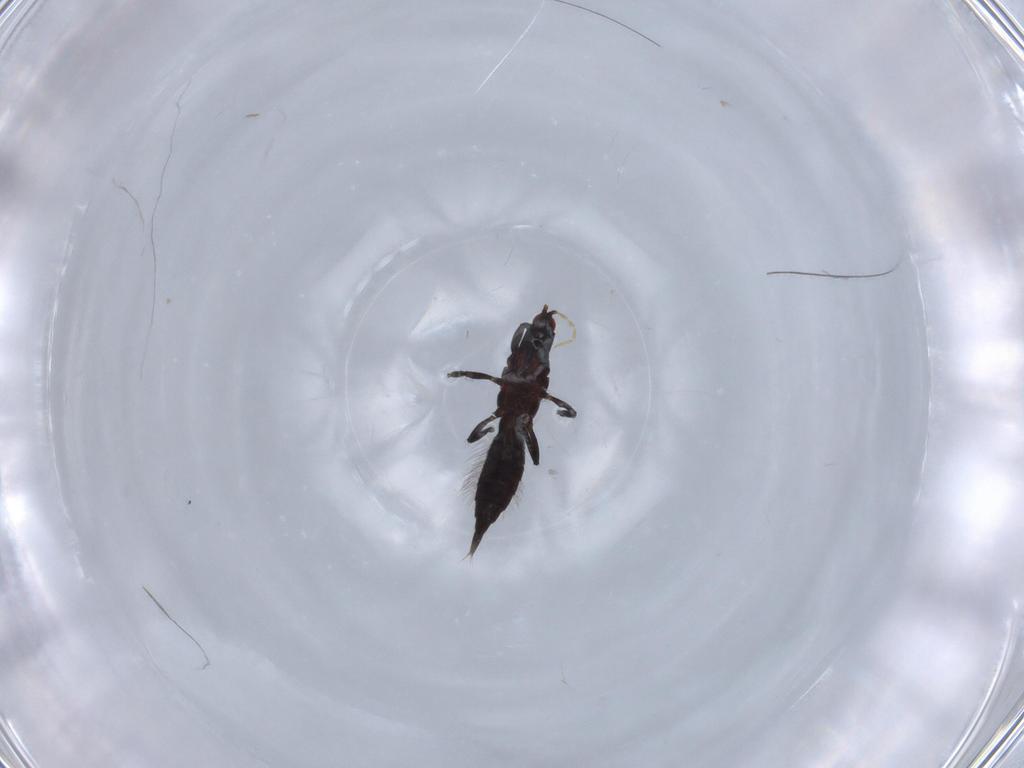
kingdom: Animalia
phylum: Arthropoda
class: Insecta
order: Thysanoptera
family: Phlaeothripidae
